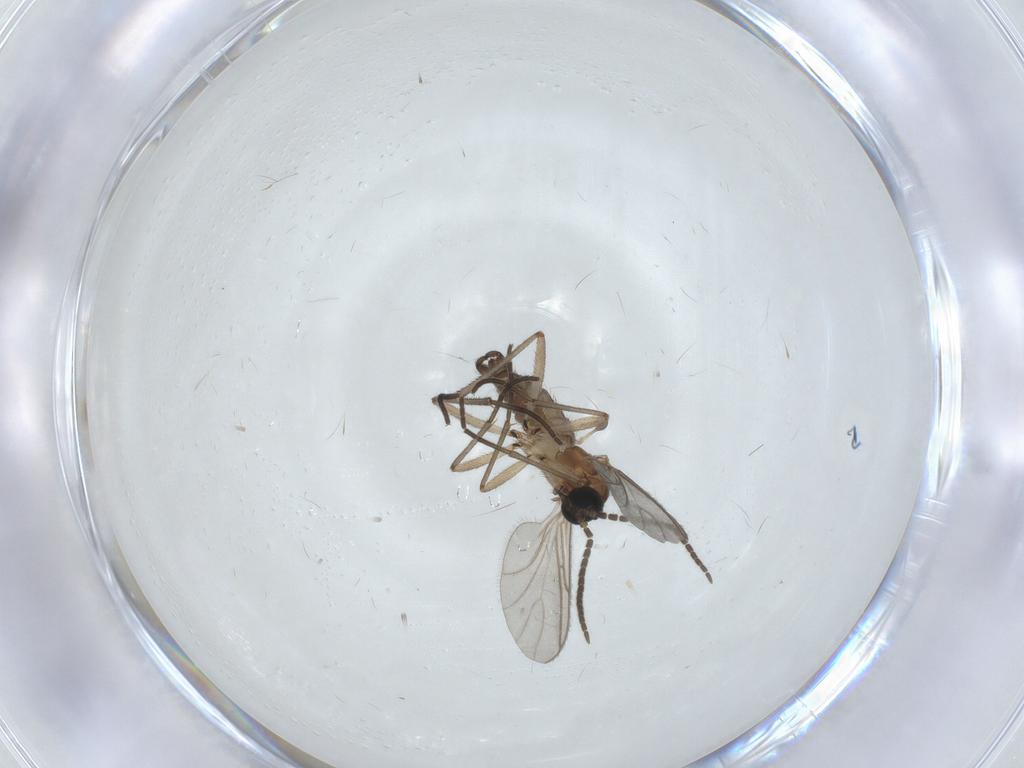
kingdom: Animalia
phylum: Arthropoda
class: Insecta
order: Diptera
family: Sciaridae
